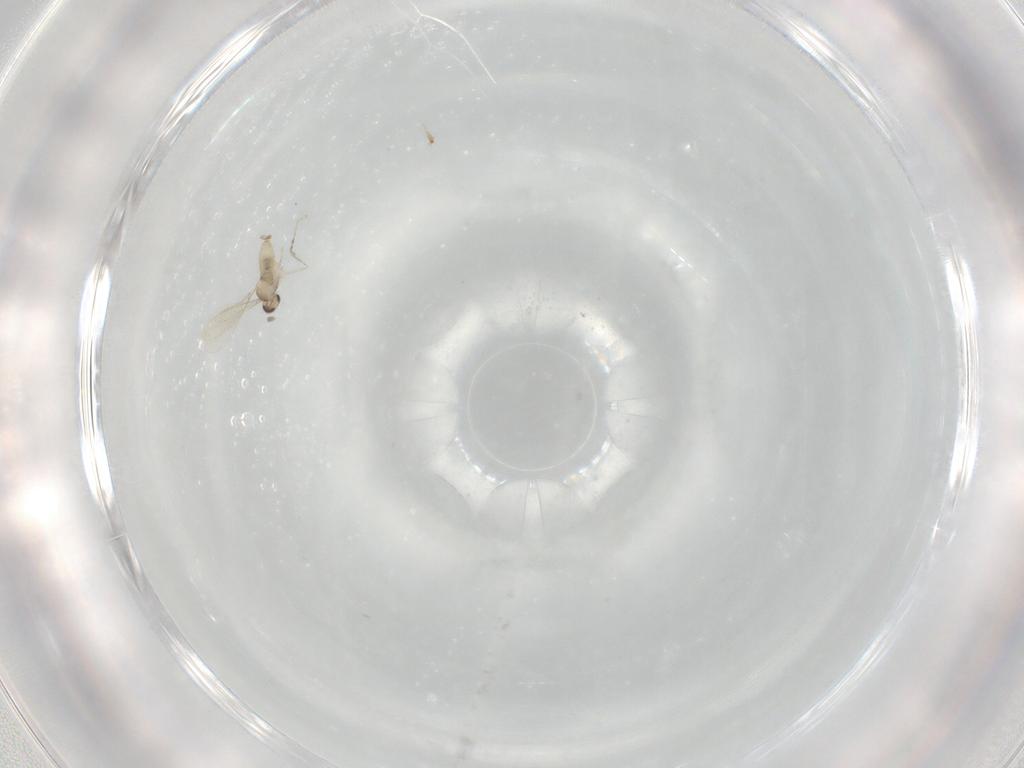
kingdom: Animalia
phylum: Arthropoda
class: Insecta
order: Diptera
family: Cecidomyiidae
